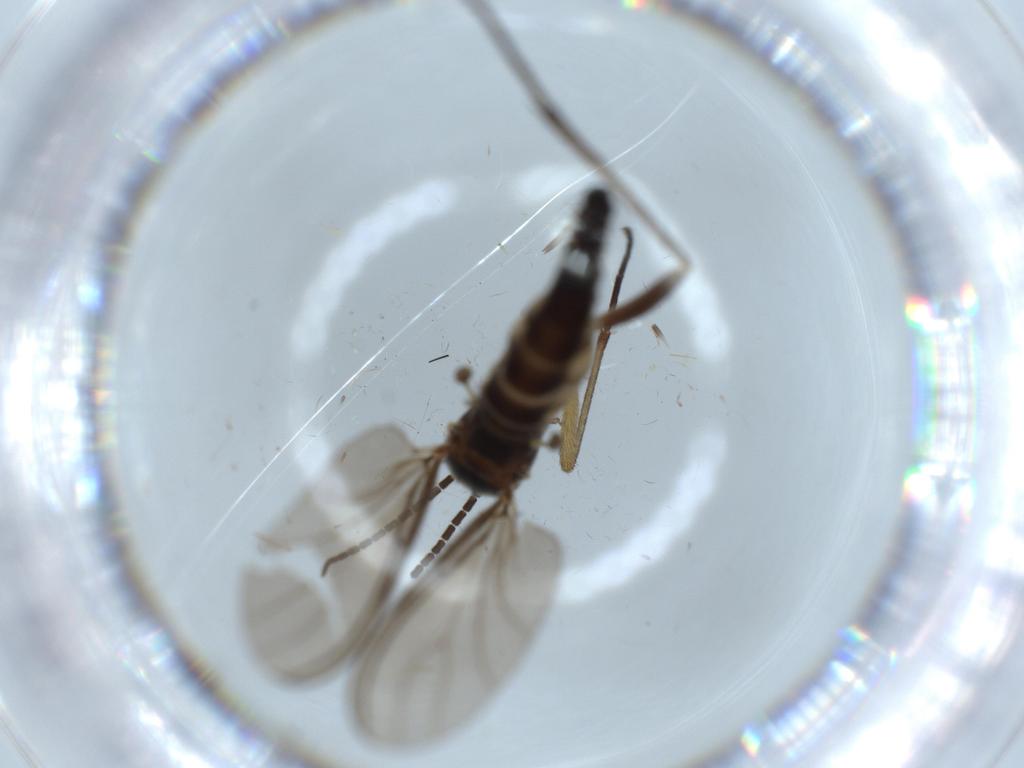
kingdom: Animalia
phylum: Arthropoda
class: Insecta
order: Diptera
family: Sciaridae
